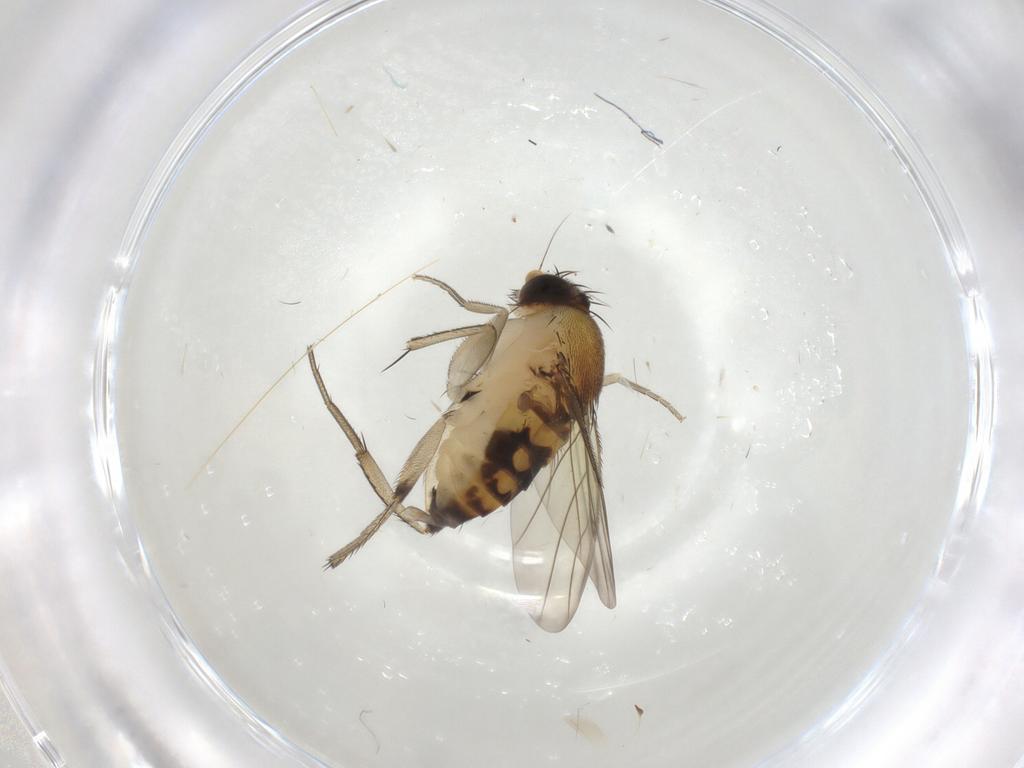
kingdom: Animalia
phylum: Arthropoda
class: Insecta
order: Diptera
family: Phoridae
